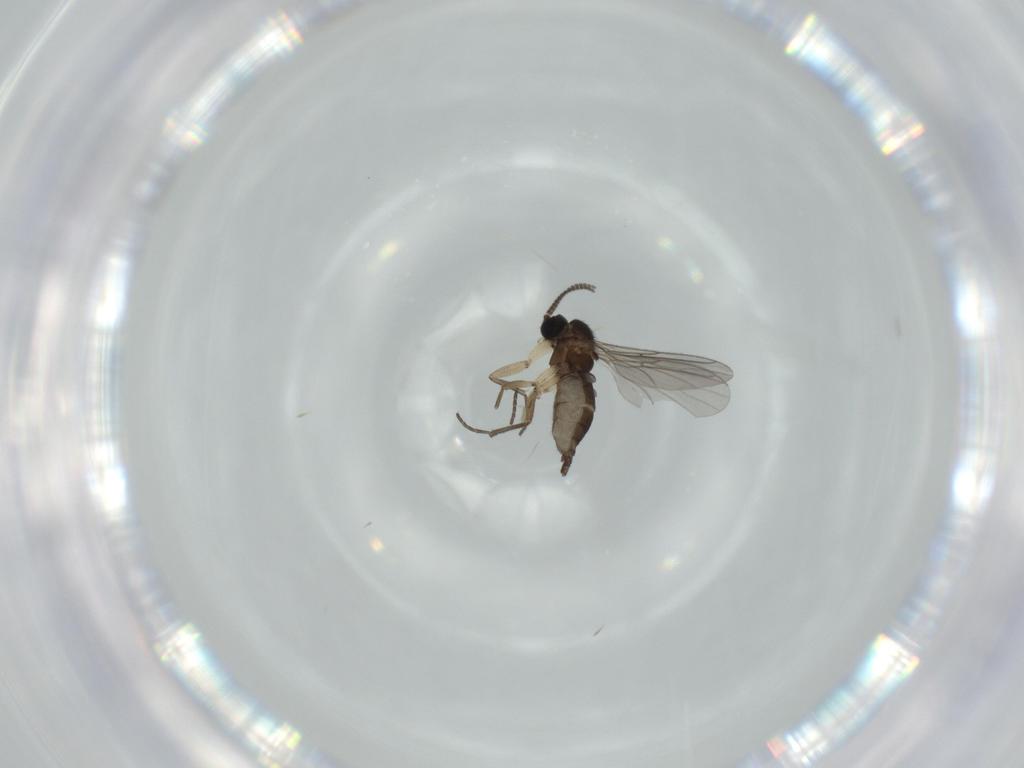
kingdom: Animalia
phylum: Arthropoda
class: Insecta
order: Diptera
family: Sciaridae
